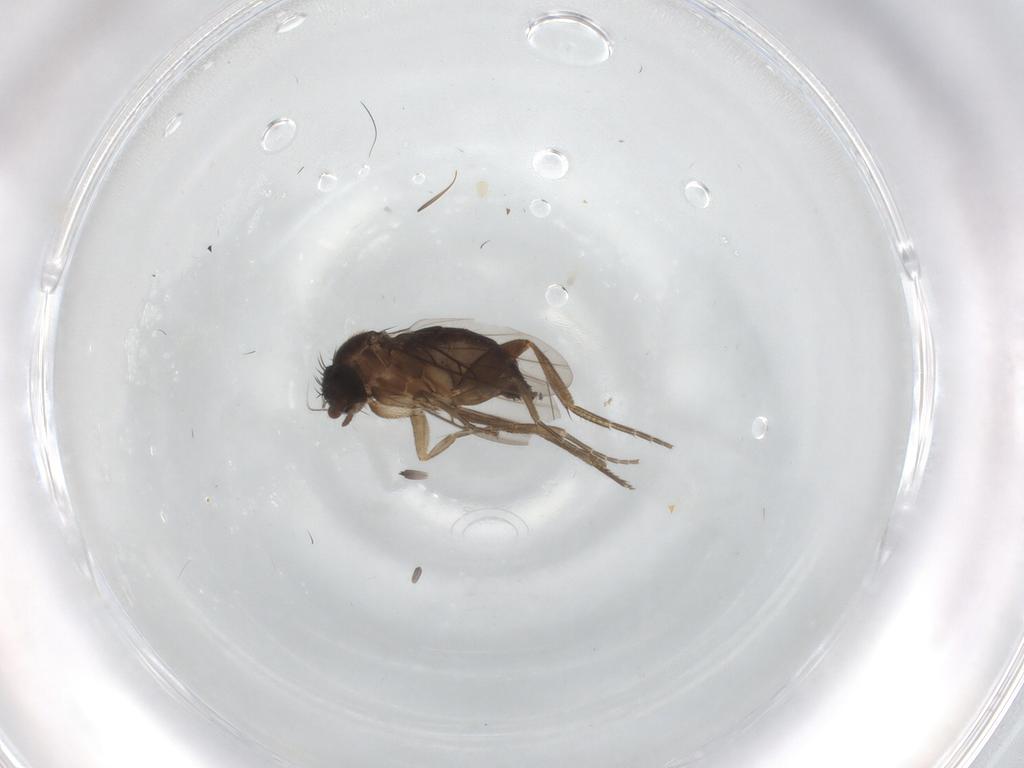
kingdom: Animalia
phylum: Arthropoda
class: Insecta
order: Diptera
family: Phoridae
